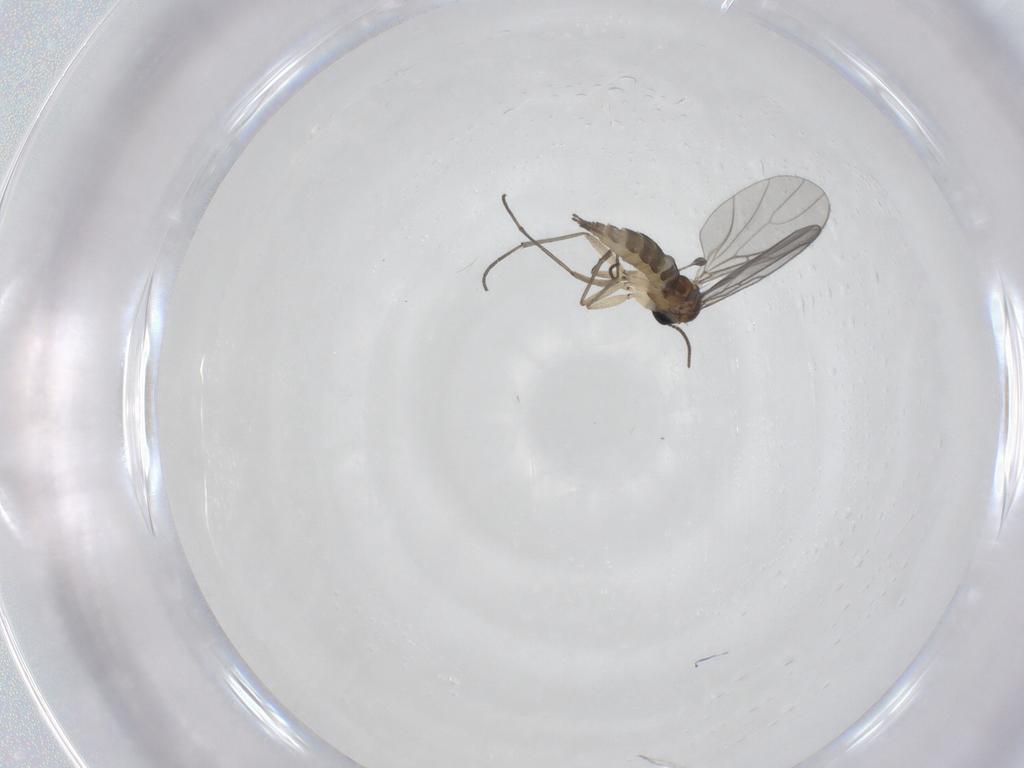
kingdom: Animalia
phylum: Arthropoda
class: Insecta
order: Diptera
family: Sciaridae
